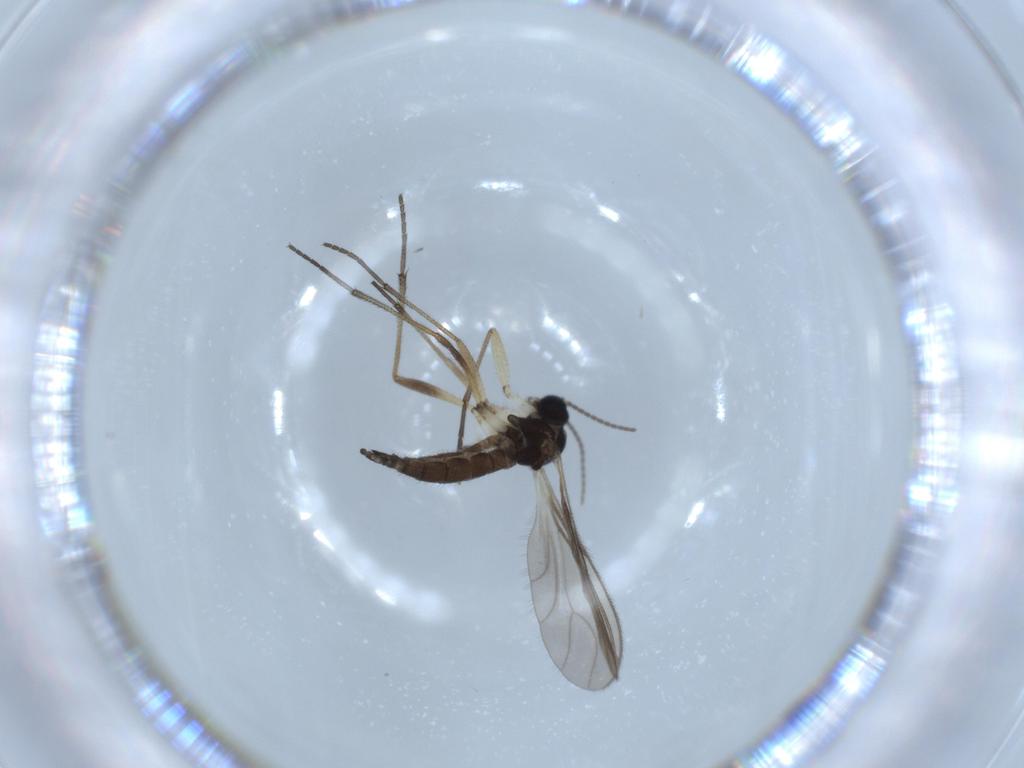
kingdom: Animalia
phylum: Arthropoda
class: Insecta
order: Diptera
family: Sciaridae
